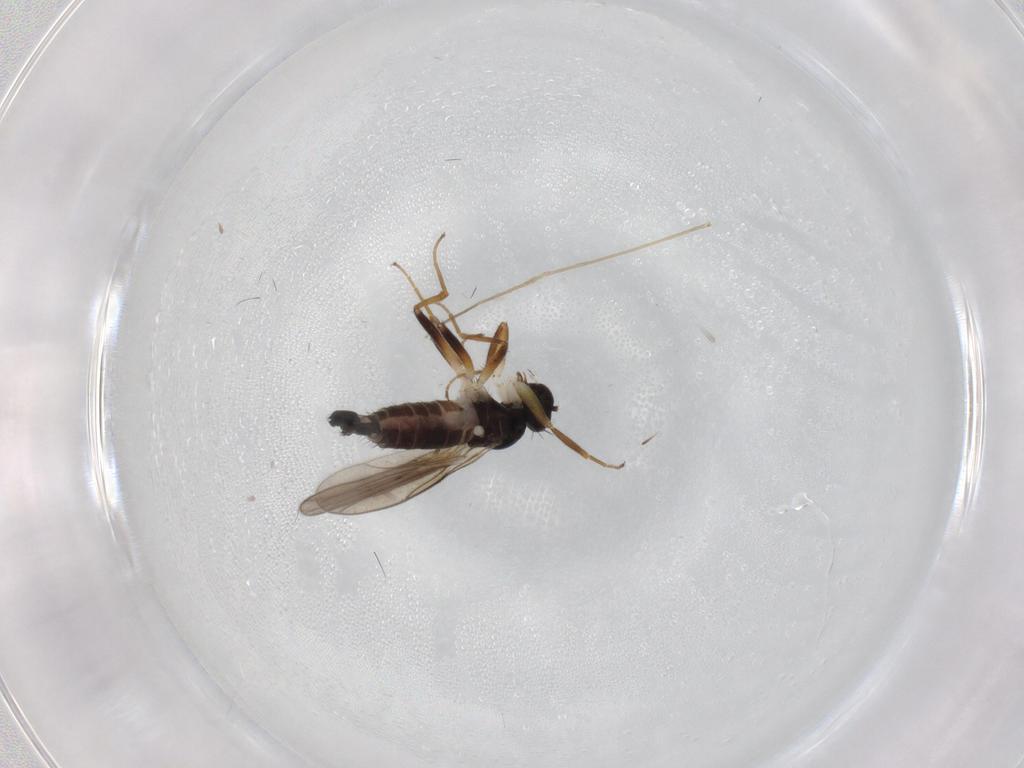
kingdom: Animalia
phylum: Arthropoda
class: Insecta
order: Diptera
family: Hybotidae
